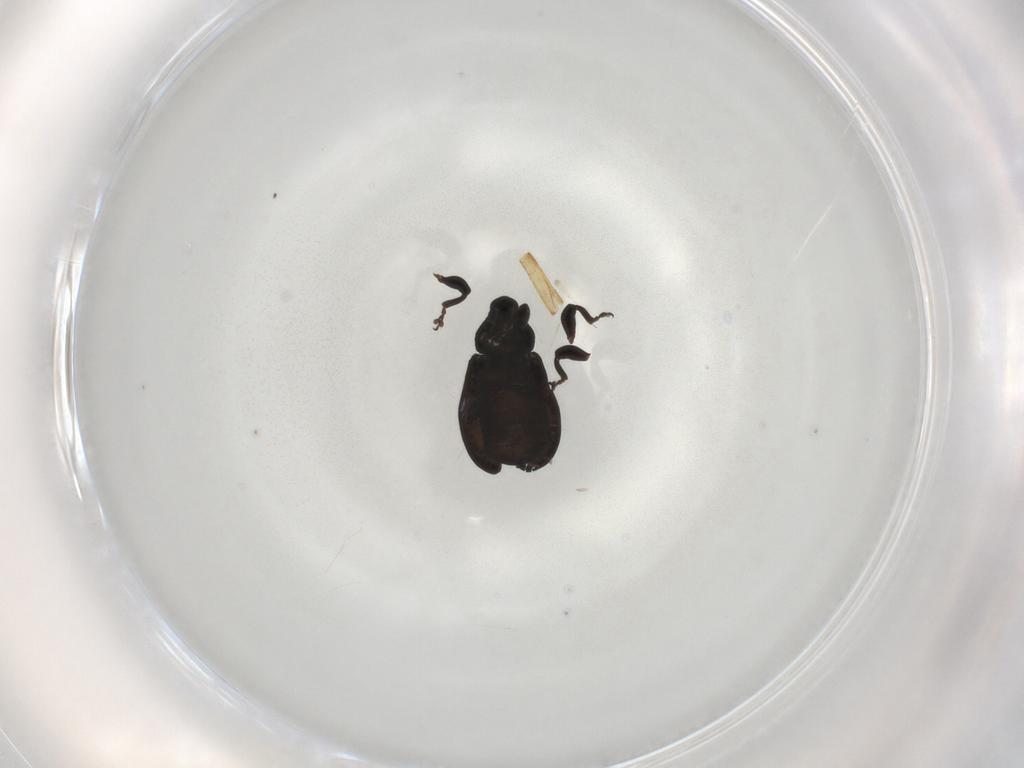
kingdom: Animalia
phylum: Arthropoda
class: Insecta
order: Coleoptera
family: Curculionidae
